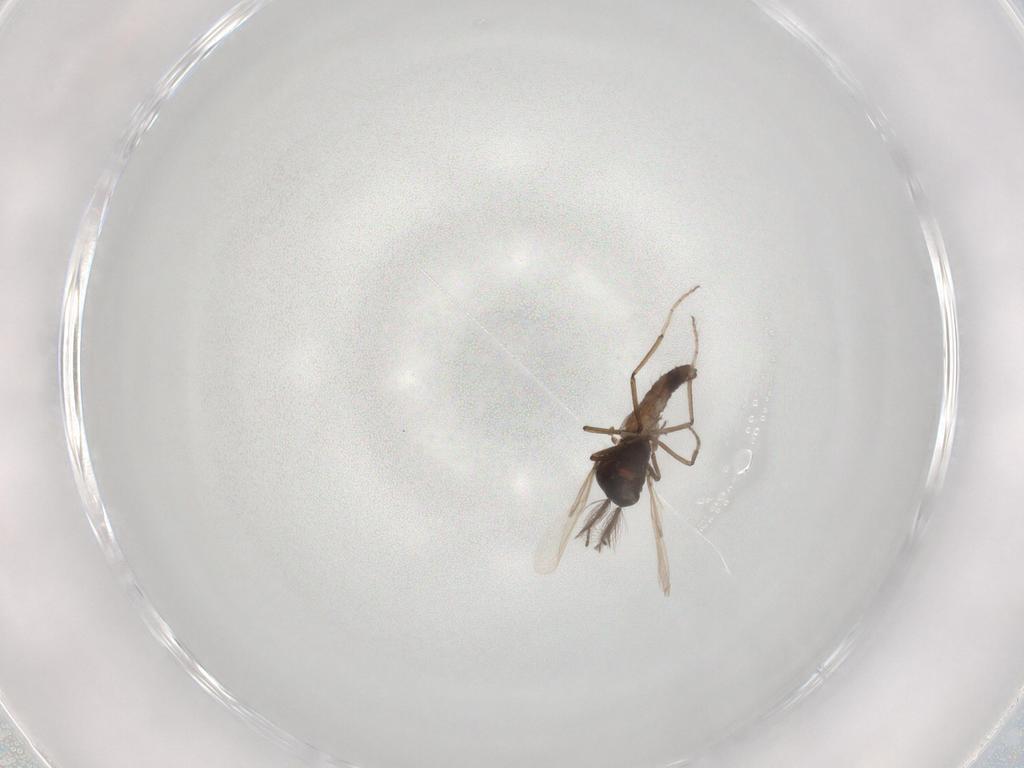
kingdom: Animalia
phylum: Arthropoda
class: Insecta
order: Diptera
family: Chironomidae
